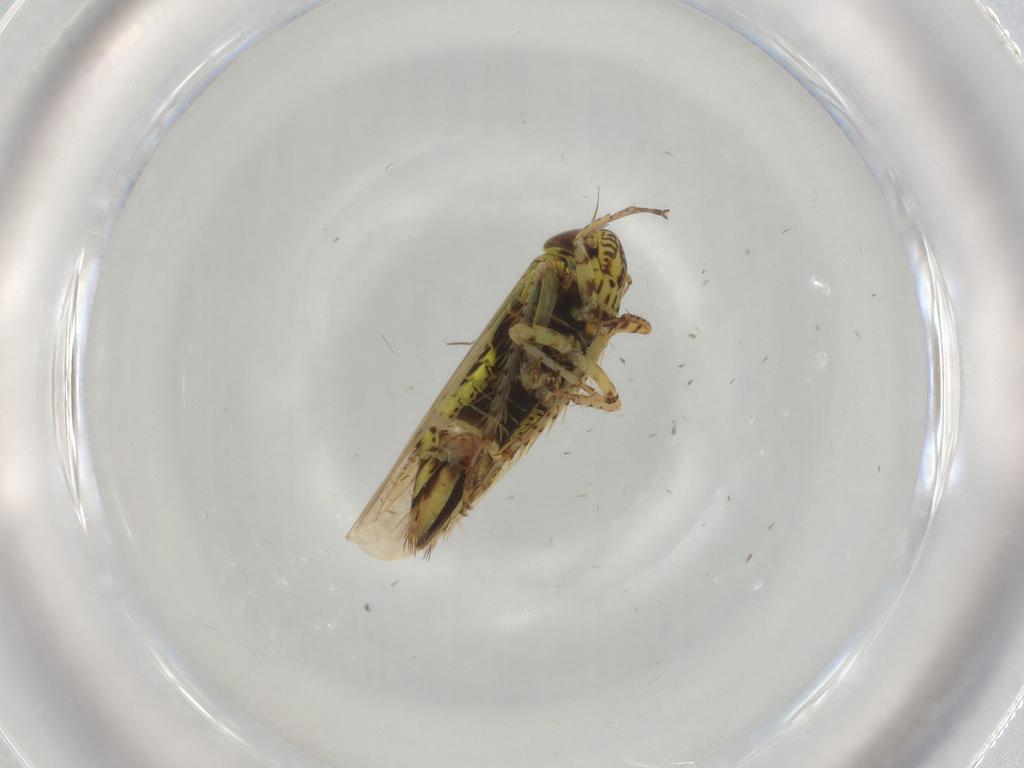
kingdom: Animalia
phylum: Arthropoda
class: Insecta
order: Hemiptera
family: Cicadellidae
